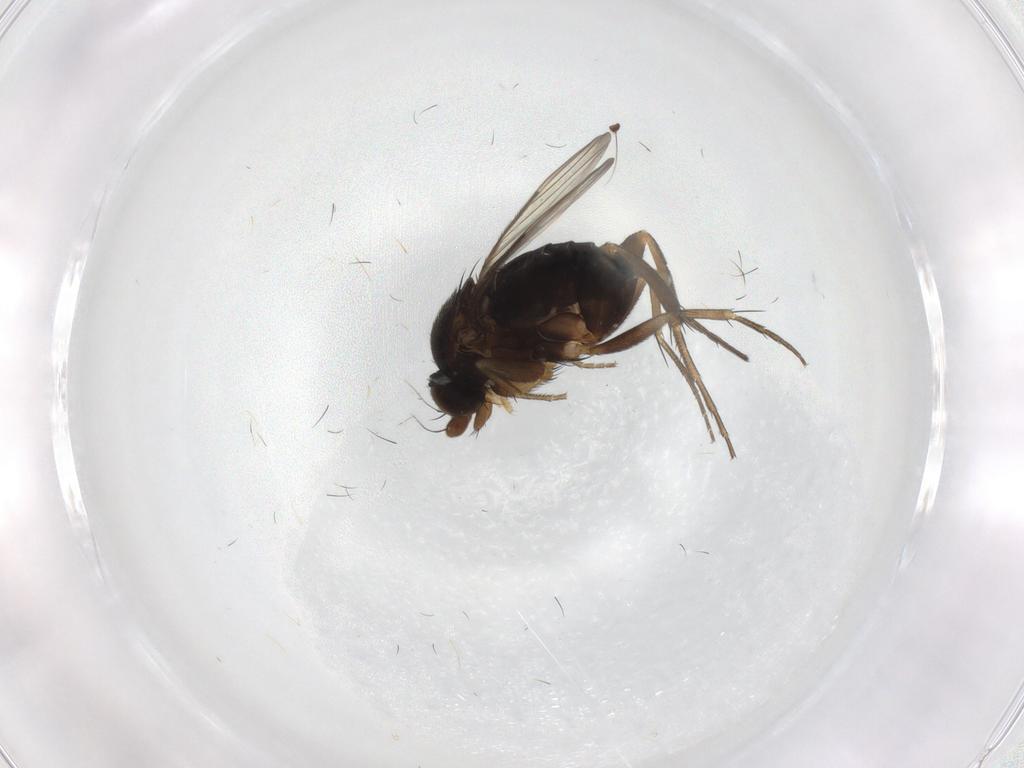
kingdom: Animalia
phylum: Arthropoda
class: Insecta
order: Diptera
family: Phoridae
